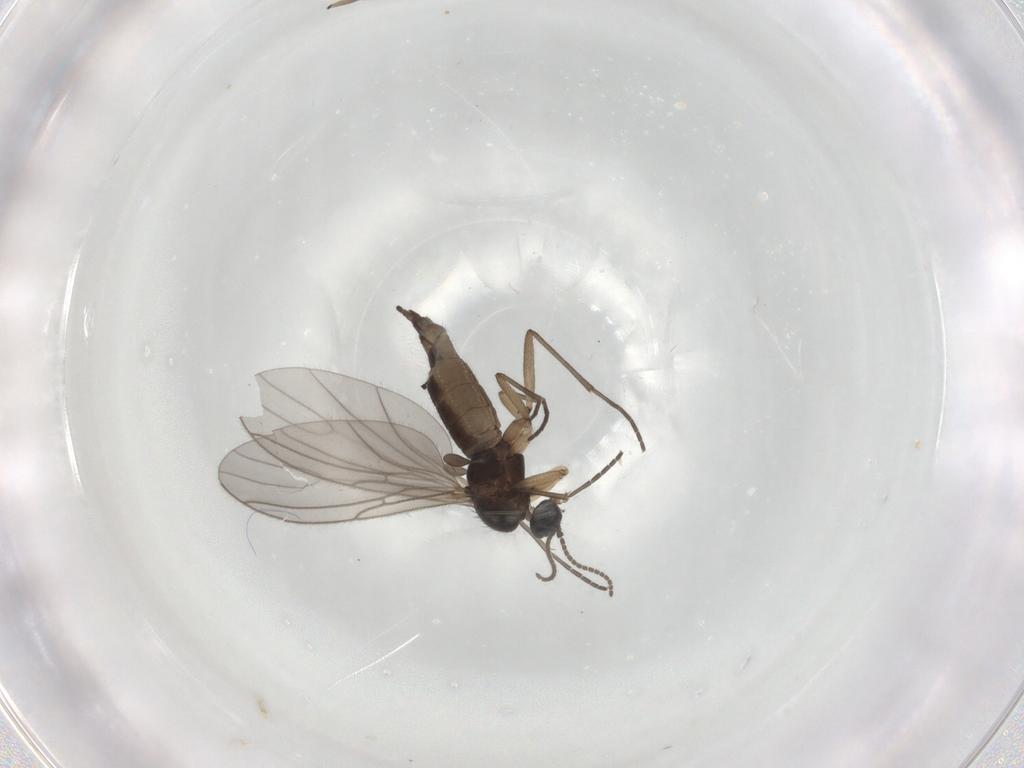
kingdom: Animalia
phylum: Arthropoda
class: Insecta
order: Diptera
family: Sciaridae
